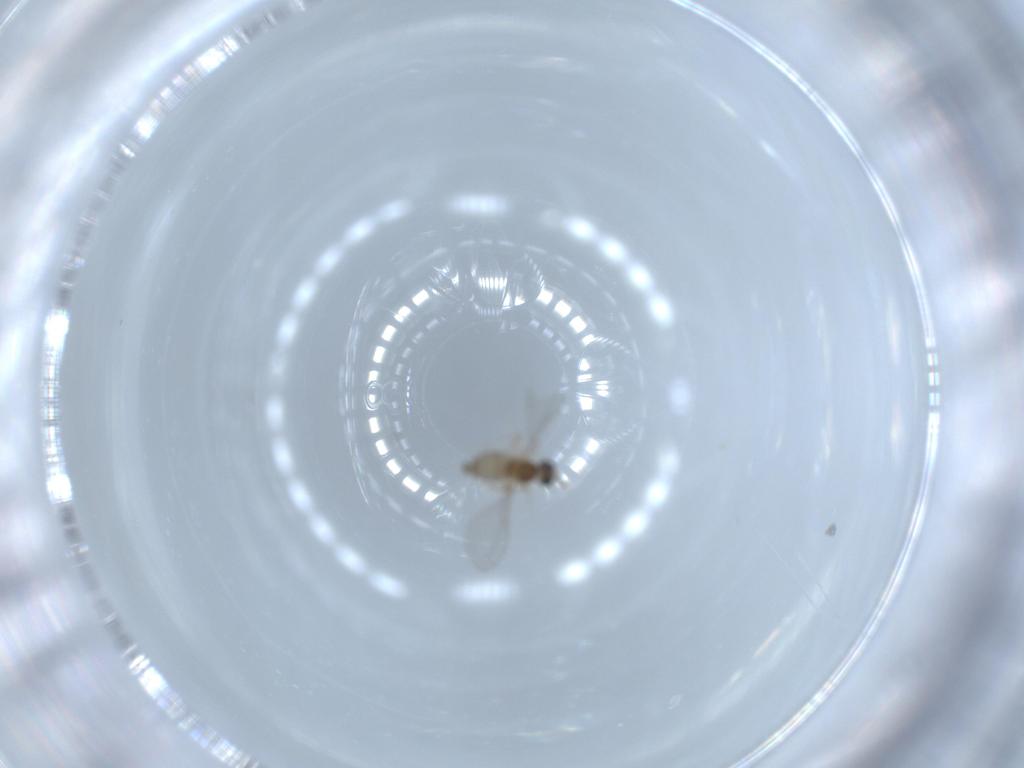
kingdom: Animalia
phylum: Arthropoda
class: Insecta
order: Diptera
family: Cecidomyiidae
